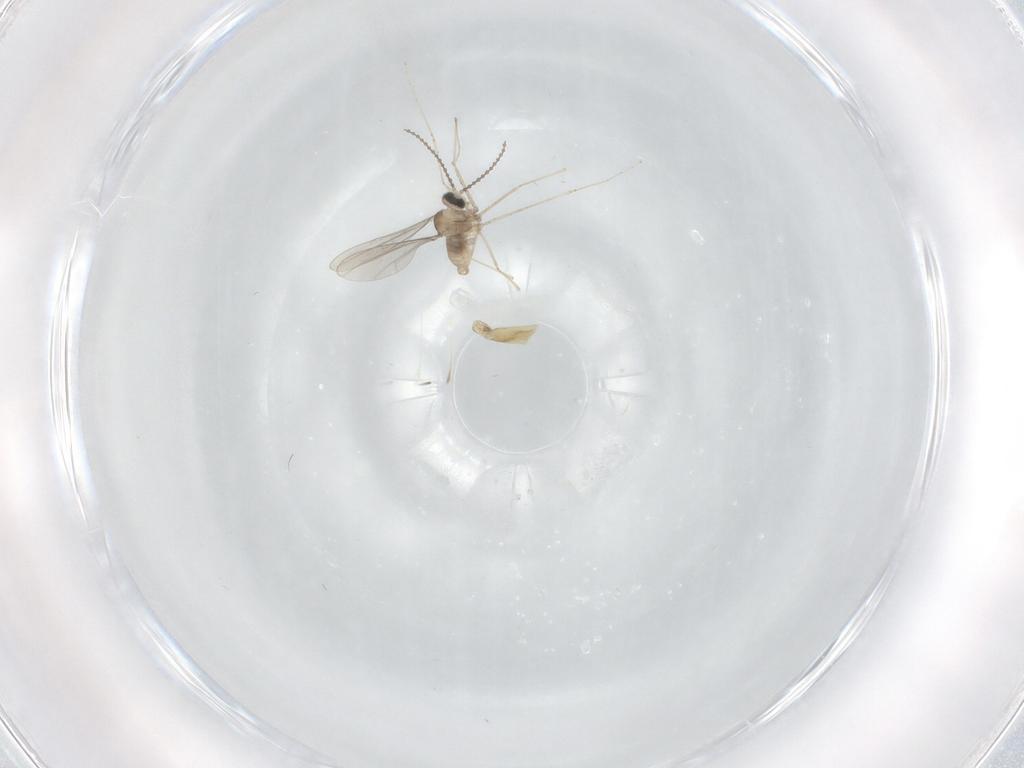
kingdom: Animalia
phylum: Arthropoda
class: Insecta
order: Diptera
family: Cecidomyiidae
